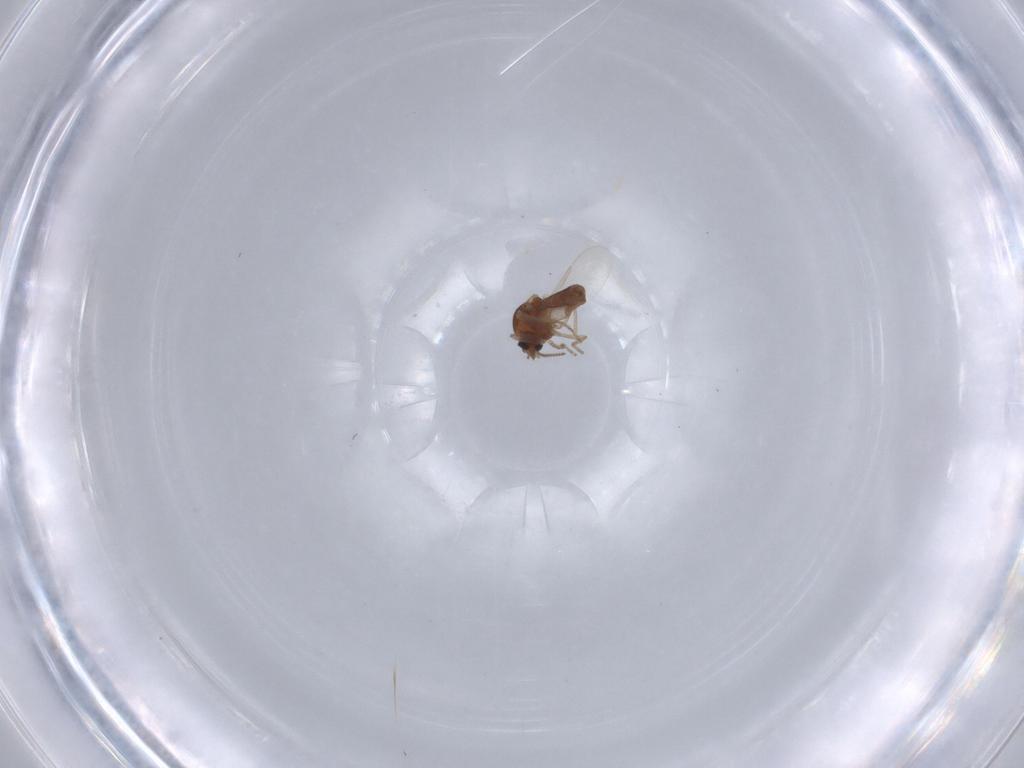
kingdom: Animalia
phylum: Arthropoda
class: Insecta
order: Diptera
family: Ceratopogonidae
